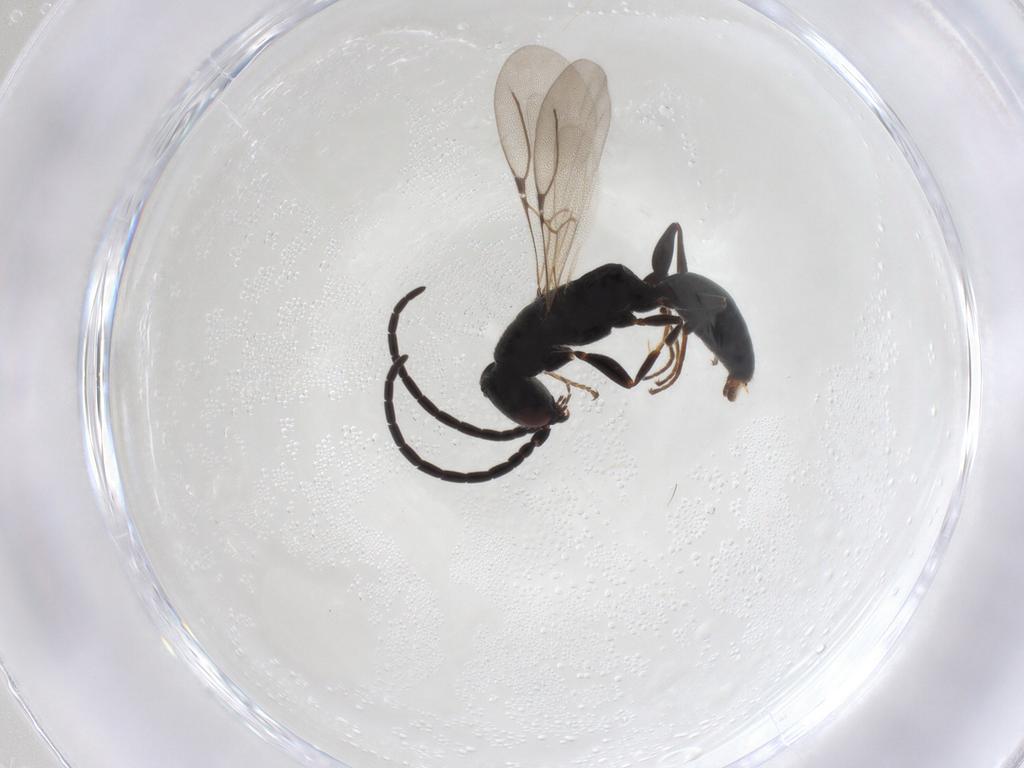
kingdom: Animalia
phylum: Arthropoda
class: Insecta
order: Hymenoptera
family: Bethylidae
